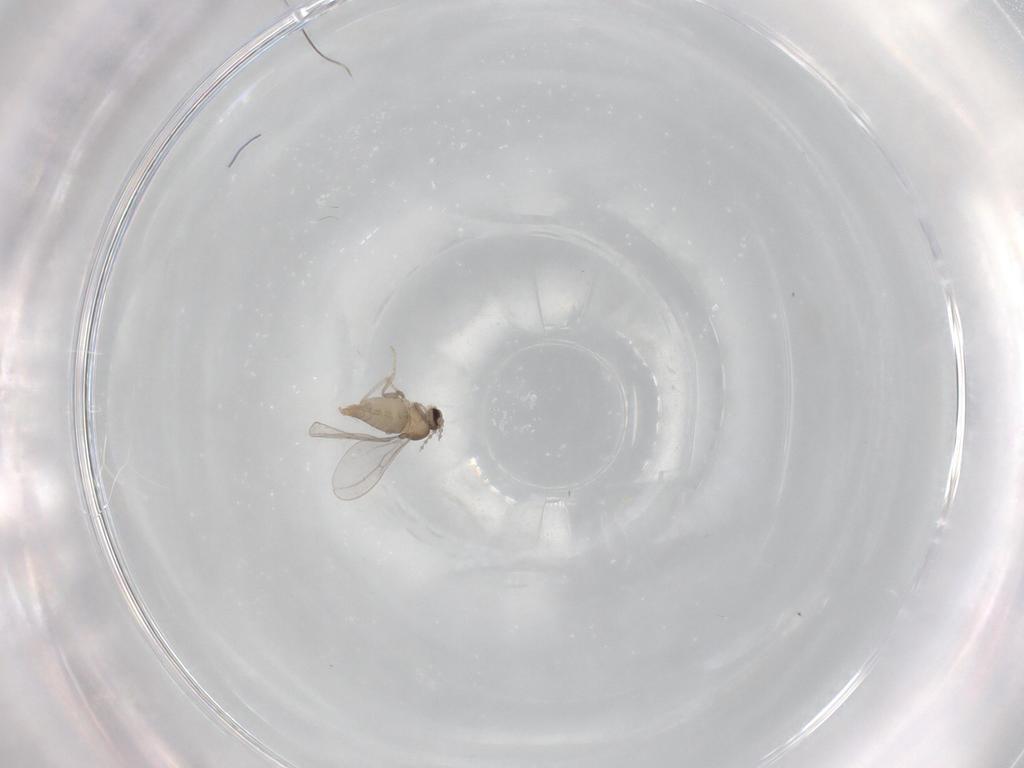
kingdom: Animalia
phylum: Arthropoda
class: Insecta
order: Diptera
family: Cecidomyiidae
